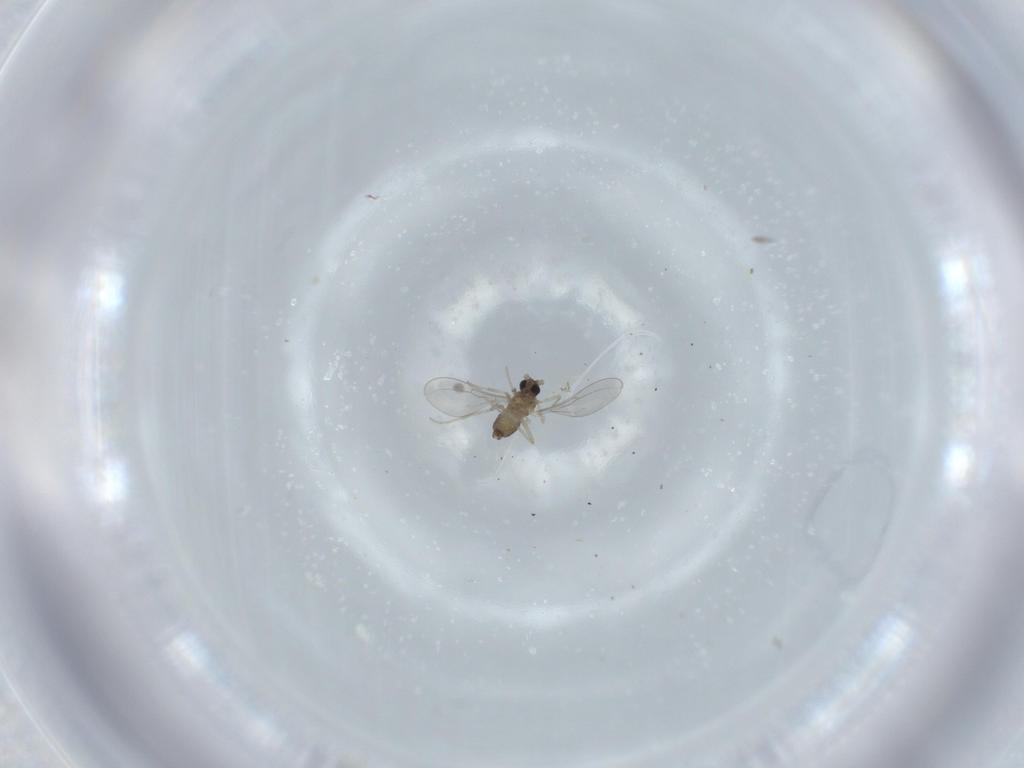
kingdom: Animalia
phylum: Arthropoda
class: Insecta
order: Diptera
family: Cecidomyiidae
